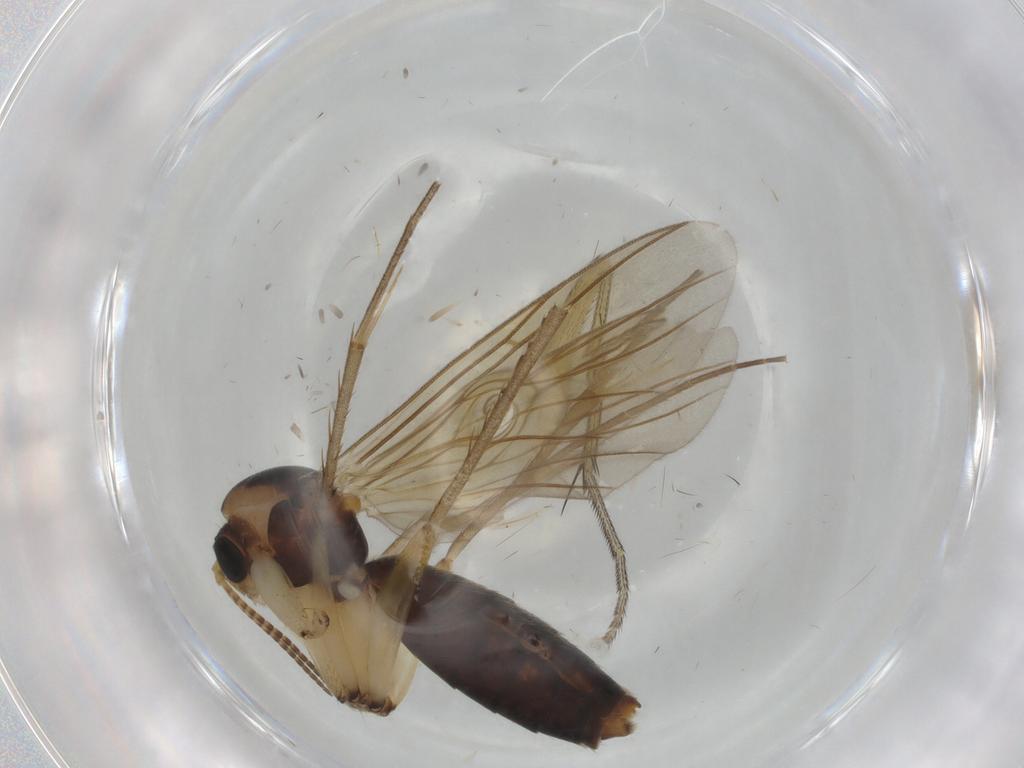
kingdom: Animalia
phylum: Arthropoda
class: Insecta
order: Diptera
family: Mycetophilidae
